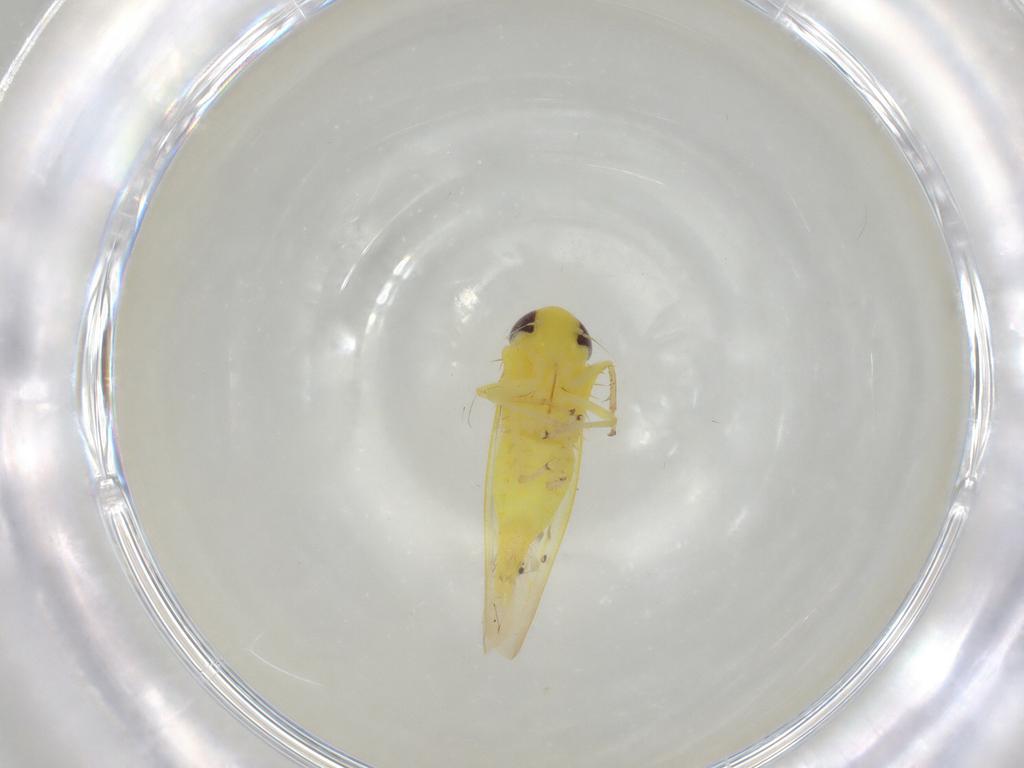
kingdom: Animalia
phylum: Arthropoda
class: Insecta
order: Hemiptera
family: Cicadellidae
